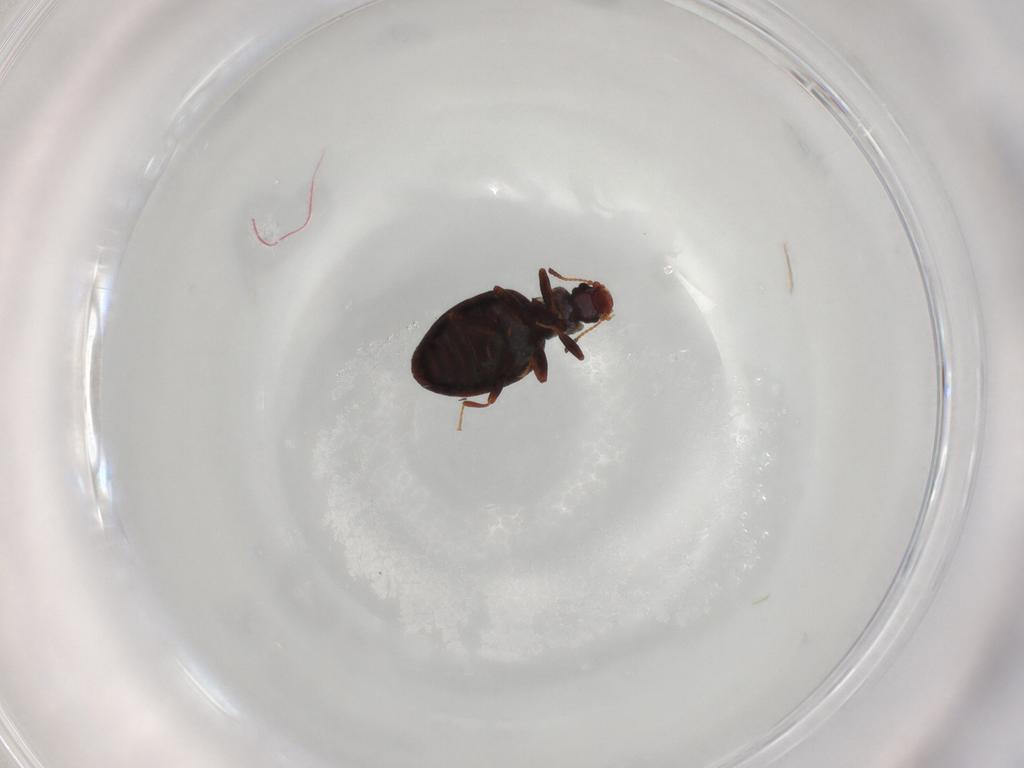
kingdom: Animalia
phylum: Arthropoda
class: Insecta
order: Coleoptera
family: Latridiidae
